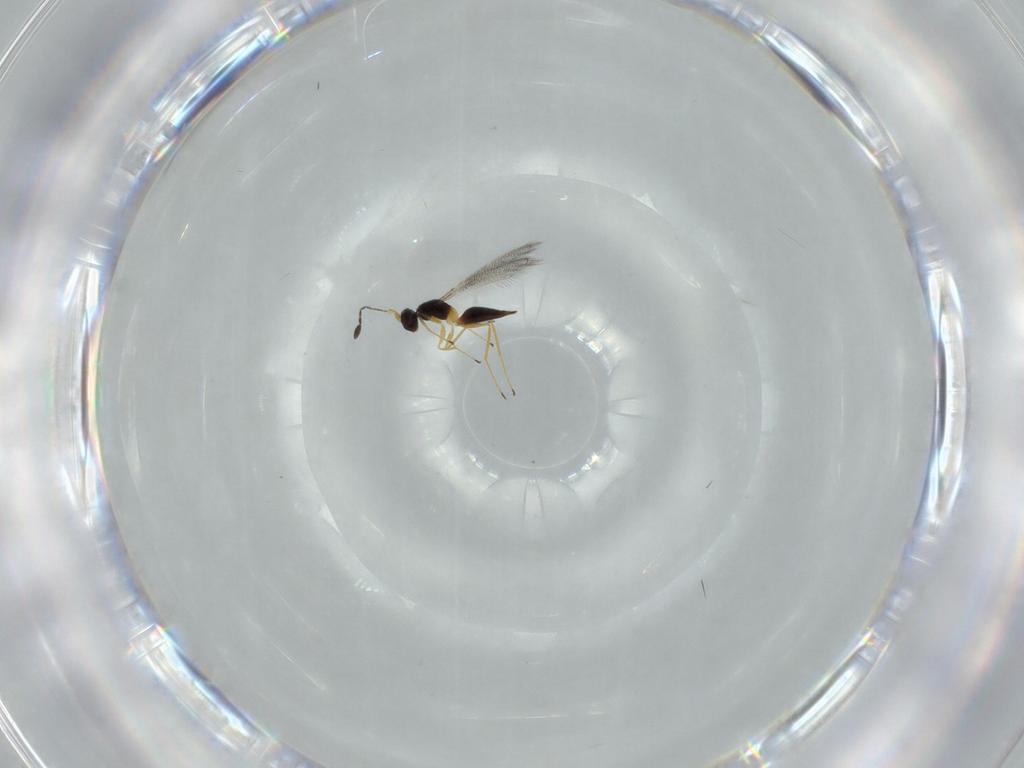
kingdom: Animalia
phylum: Arthropoda
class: Insecta
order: Hymenoptera
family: Mymaridae
